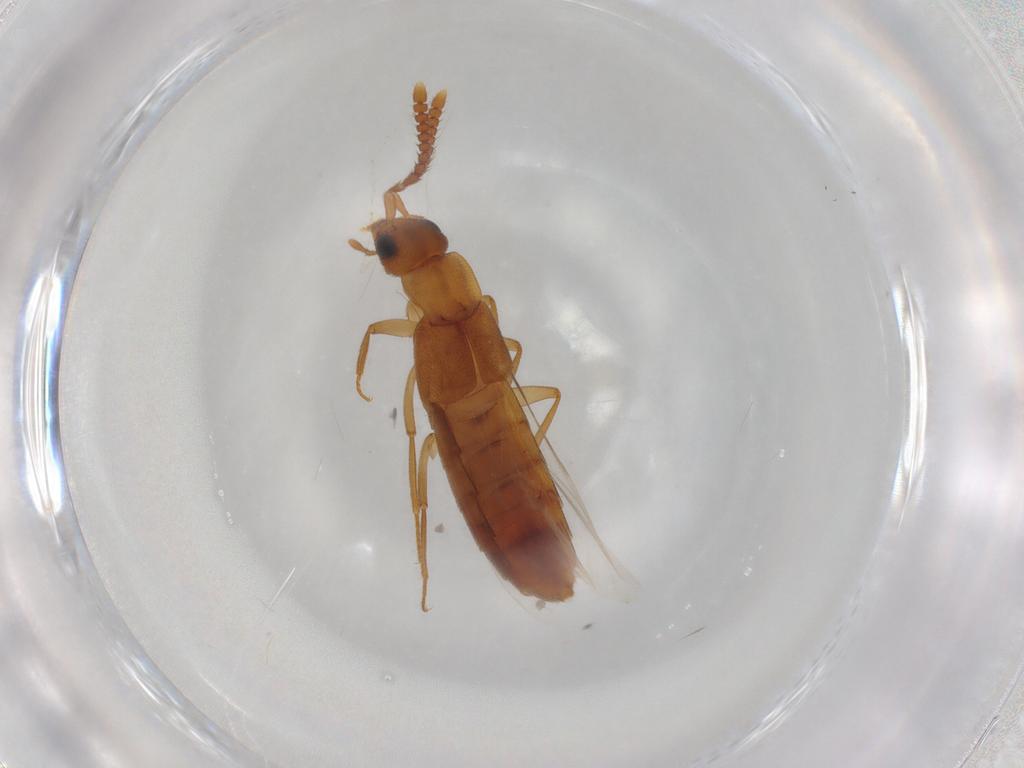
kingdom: Animalia
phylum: Arthropoda
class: Insecta
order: Coleoptera
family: Staphylinidae
